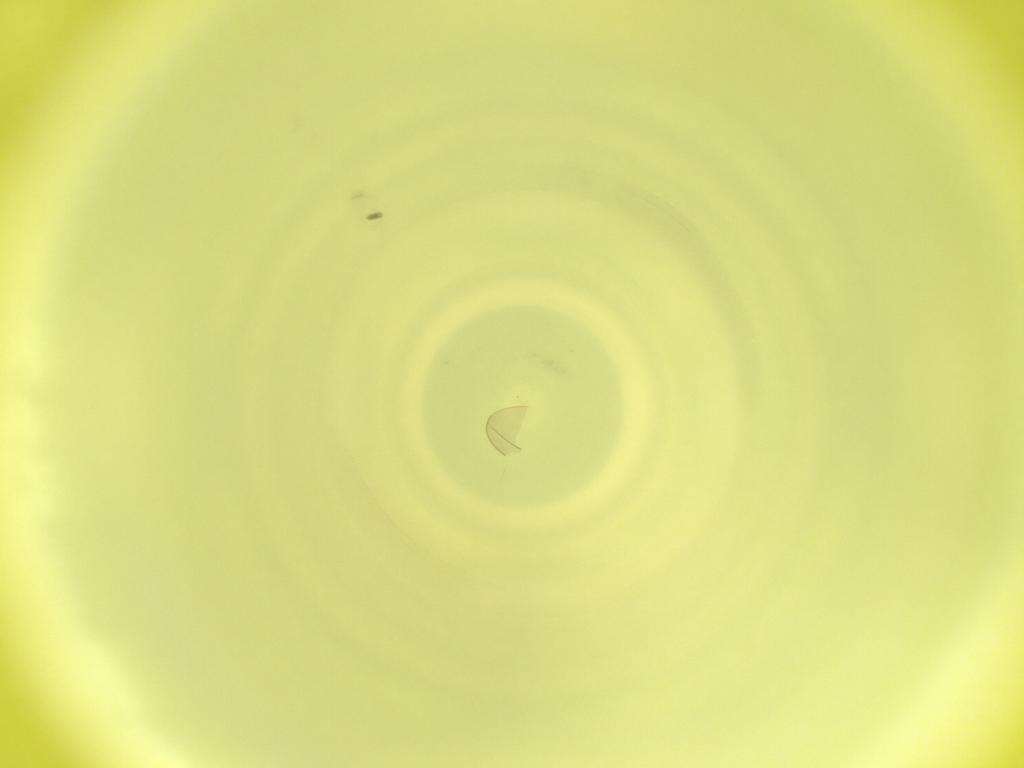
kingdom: Animalia
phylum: Arthropoda
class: Insecta
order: Diptera
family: Cecidomyiidae
